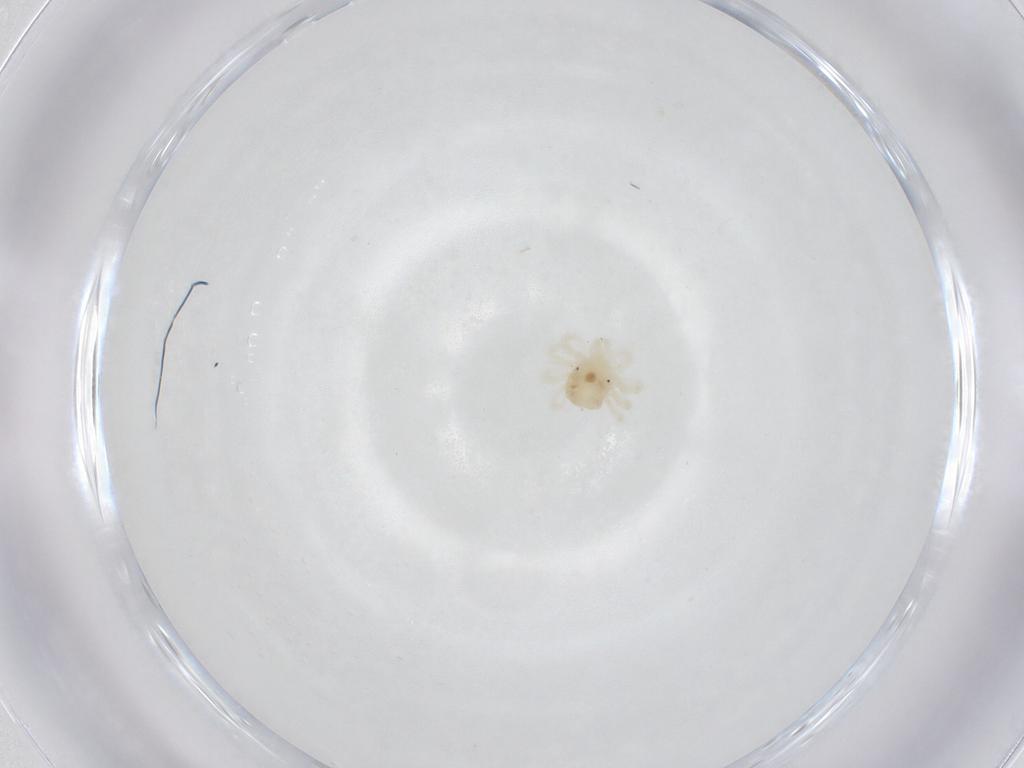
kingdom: Animalia
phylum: Arthropoda
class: Arachnida
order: Trombidiformes
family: Anystidae
